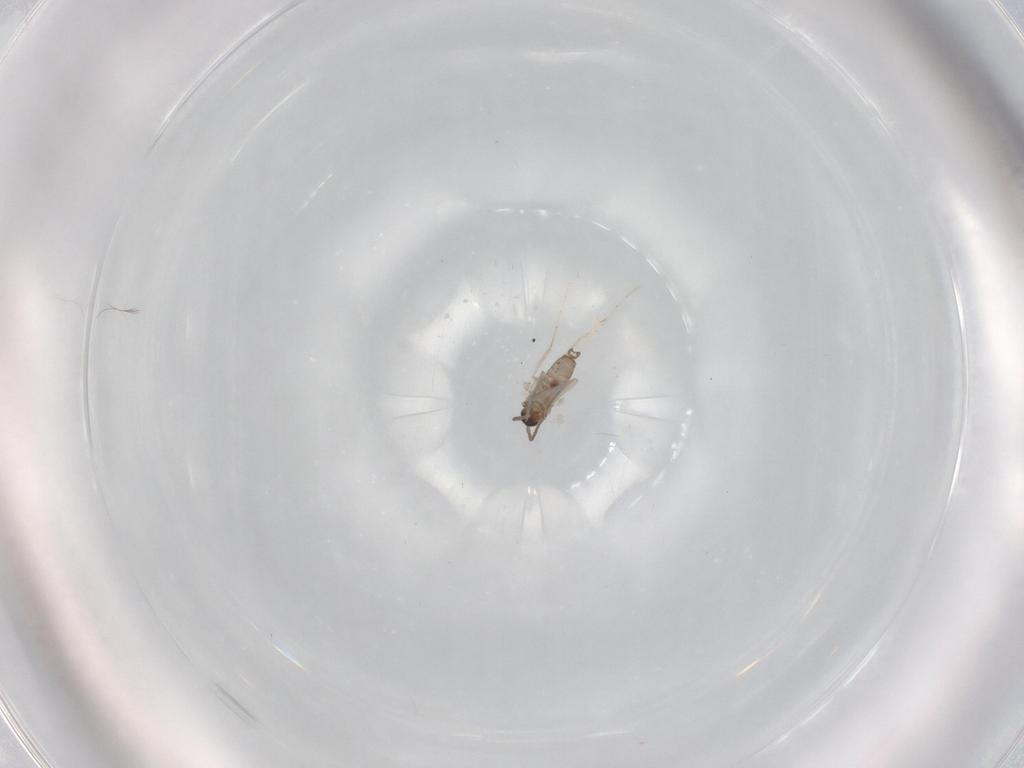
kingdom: Animalia
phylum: Arthropoda
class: Insecta
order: Diptera
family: Cecidomyiidae
